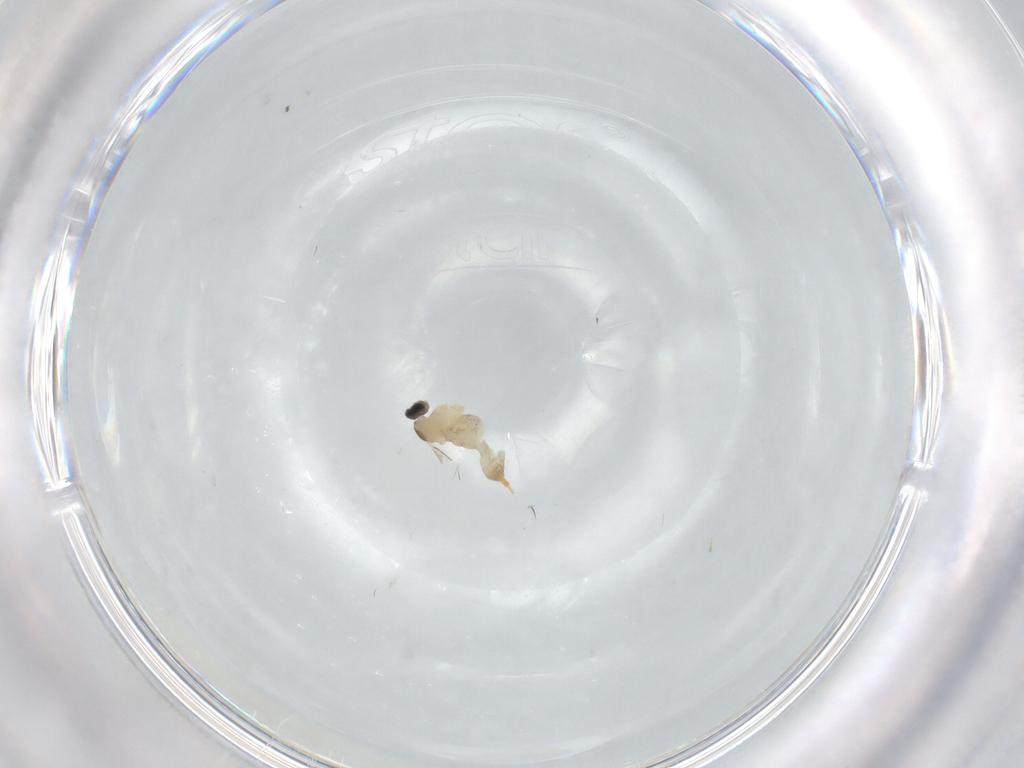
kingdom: Animalia
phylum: Arthropoda
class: Insecta
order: Diptera
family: Cecidomyiidae
